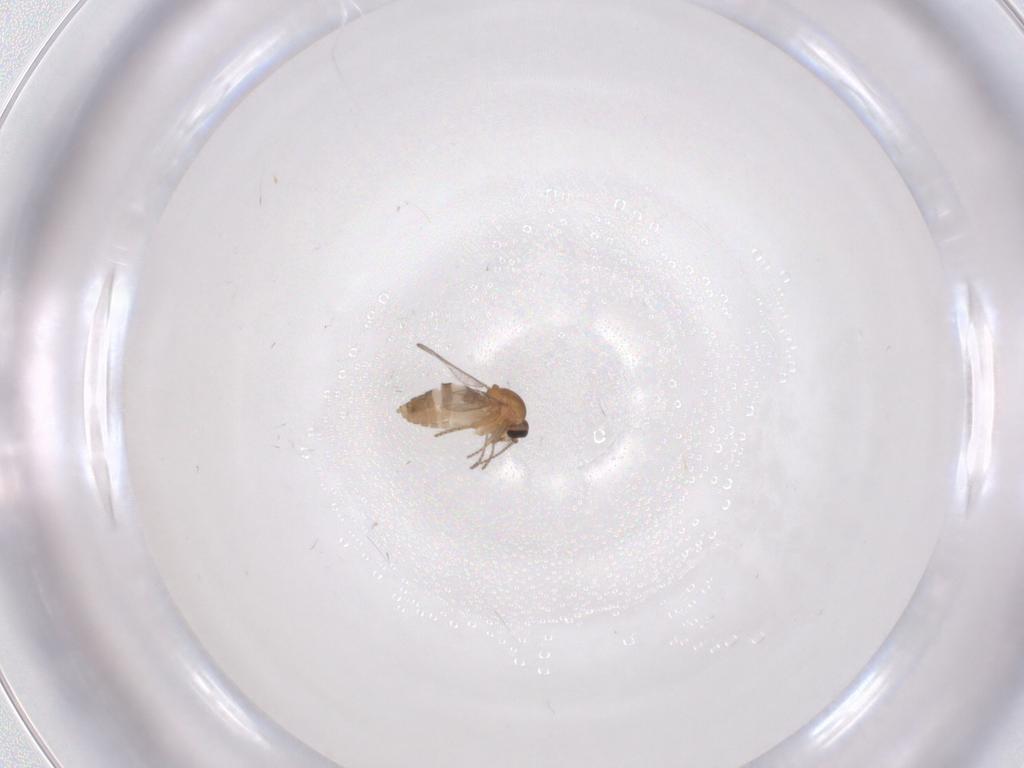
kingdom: Animalia
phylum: Arthropoda
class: Insecta
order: Diptera
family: Ceratopogonidae
